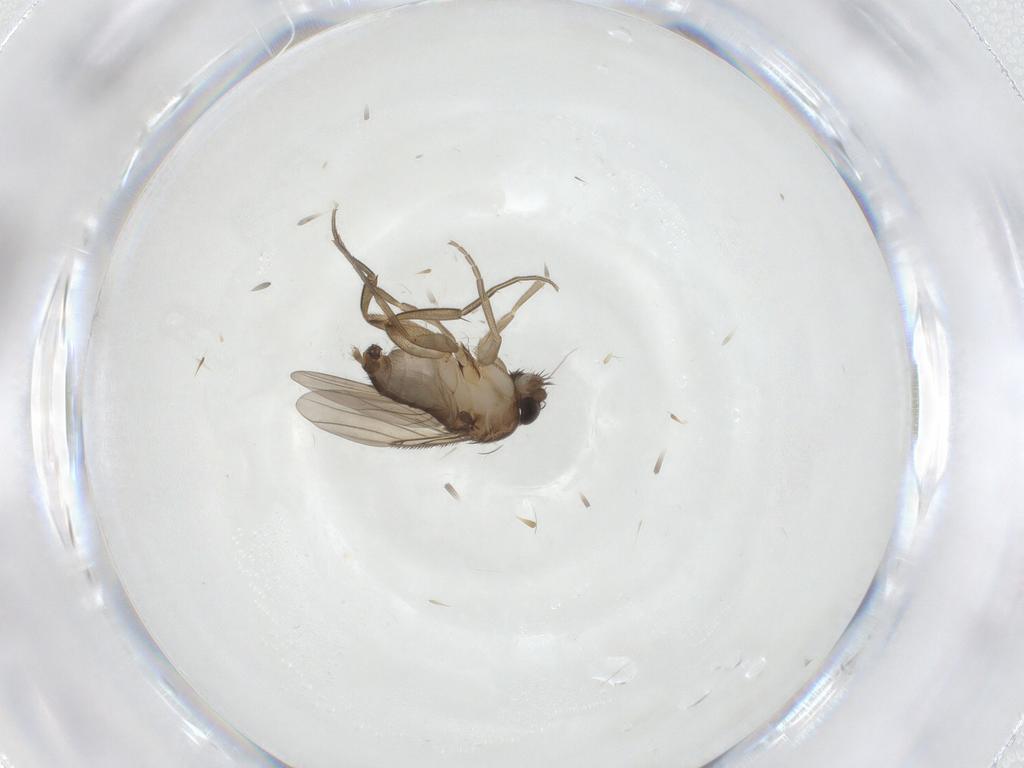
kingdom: Animalia
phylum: Arthropoda
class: Insecta
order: Diptera
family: Phoridae
